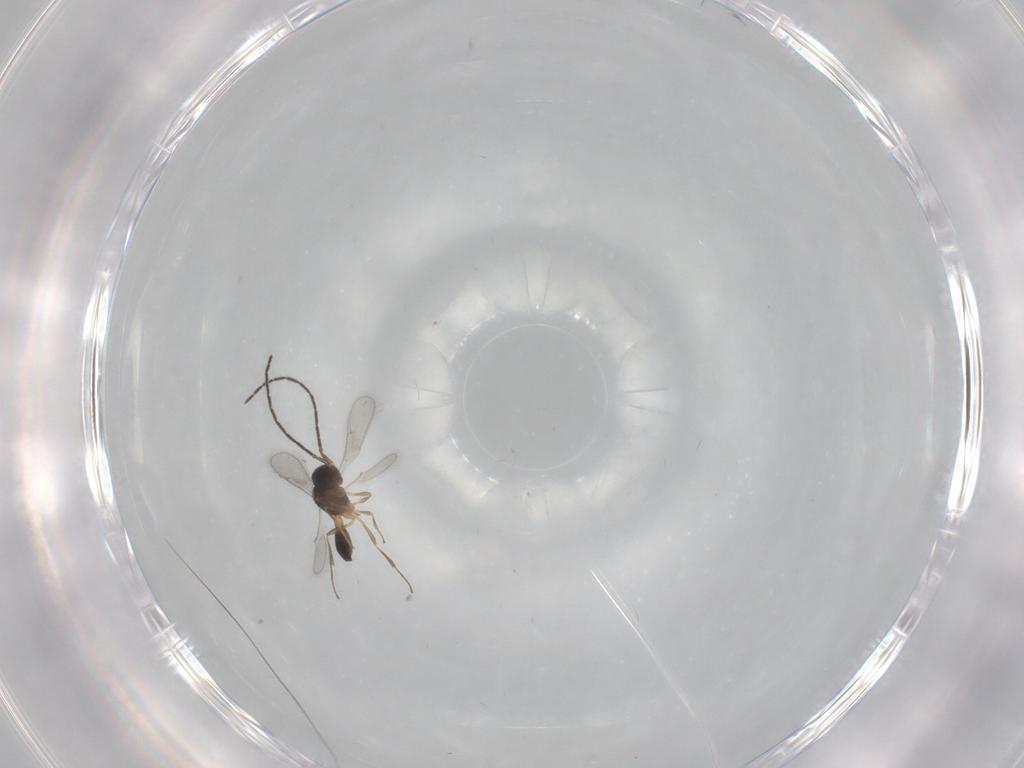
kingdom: Animalia
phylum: Arthropoda
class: Insecta
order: Hymenoptera
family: Scelionidae
